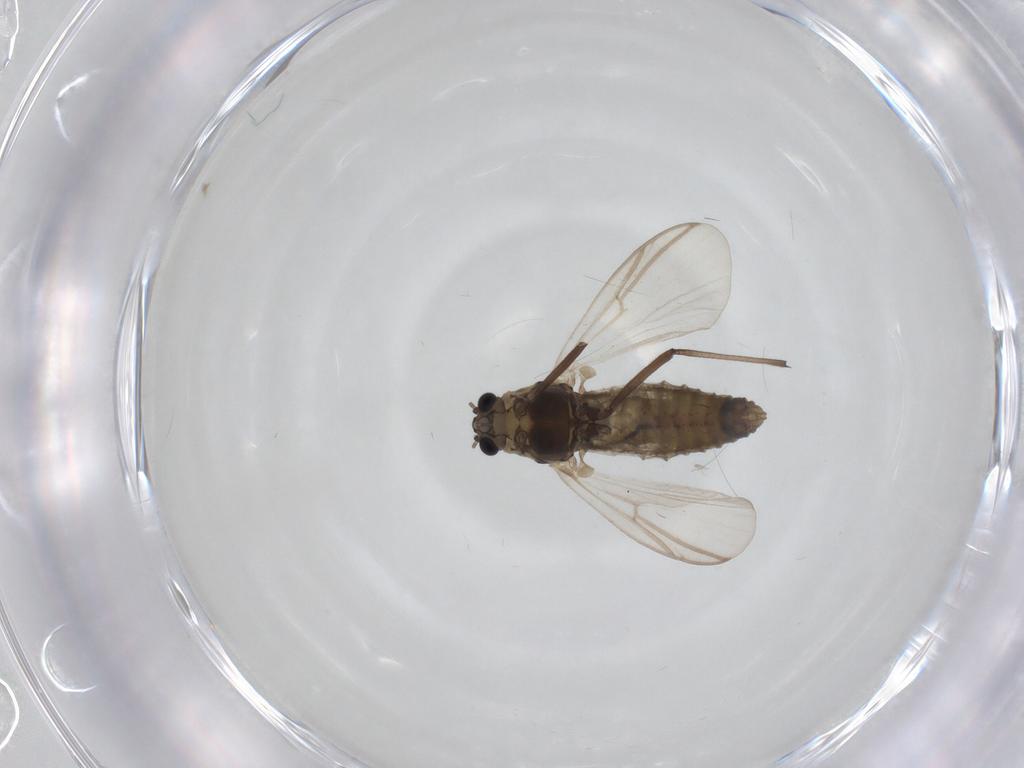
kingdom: Animalia
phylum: Arthropoda
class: Insecta
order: Diptera
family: Chironomidae
